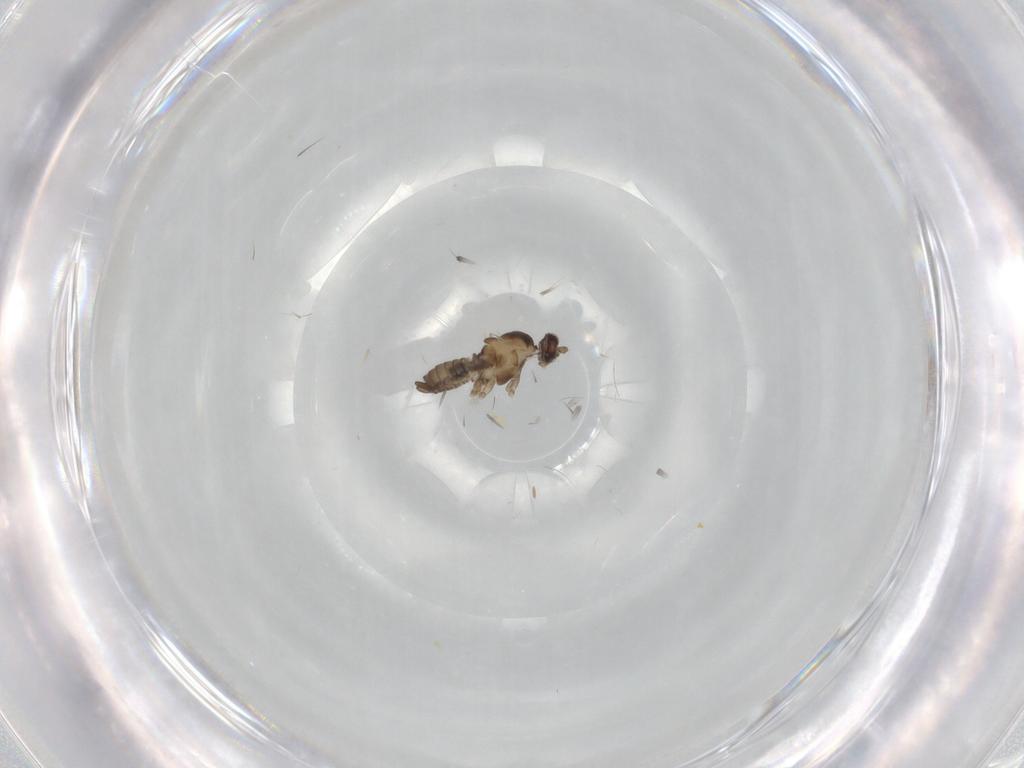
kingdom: Animalia
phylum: Arthropoda
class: Insecta
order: Diptera
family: Cecidomyiidae
